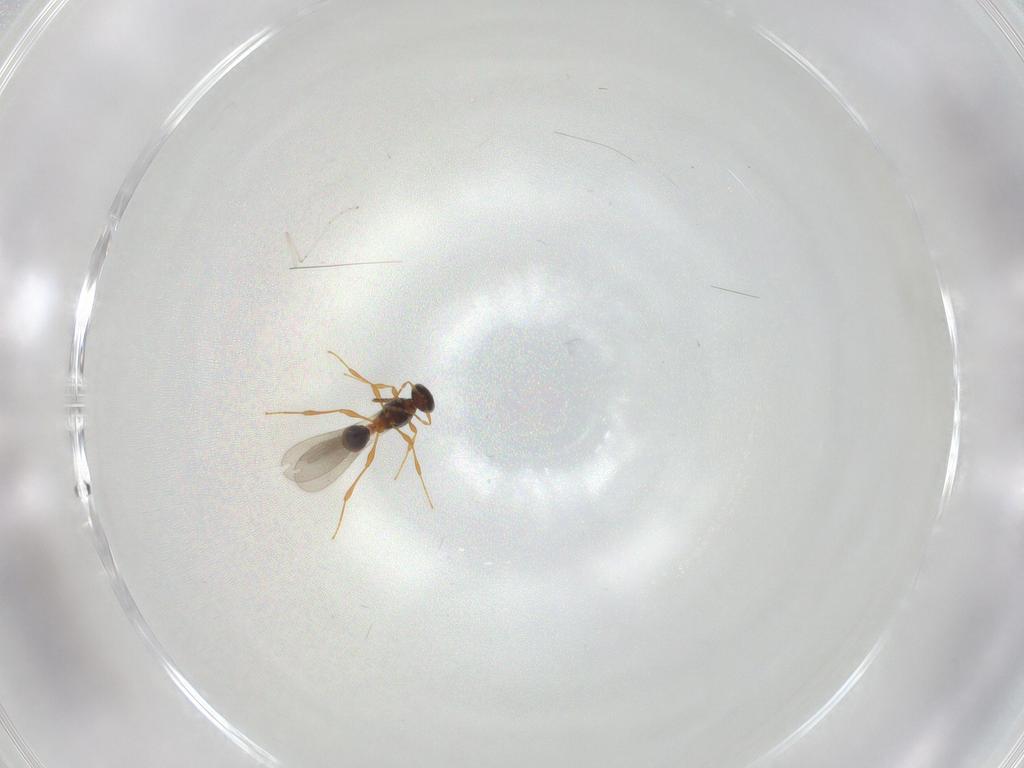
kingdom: Animalia
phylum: Arthropoda
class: Insecta
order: Hymenoptera
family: Platygastridae
